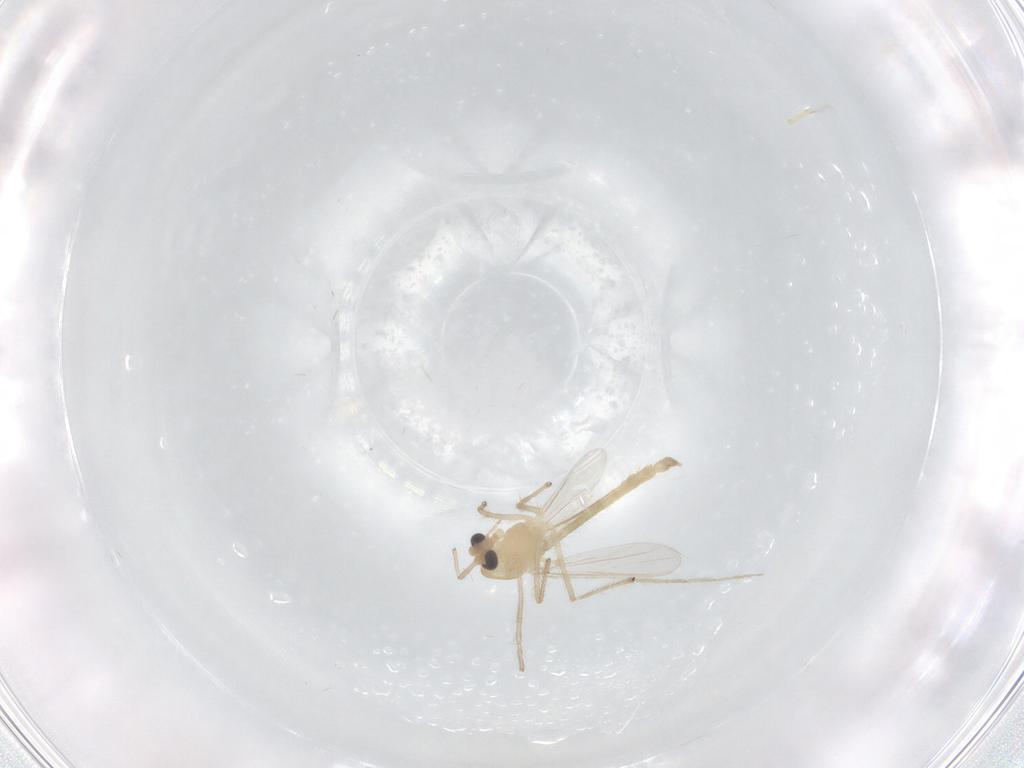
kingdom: Animalia
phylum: Arthropoda
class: Insecta
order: Diptera
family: Chironomidae
